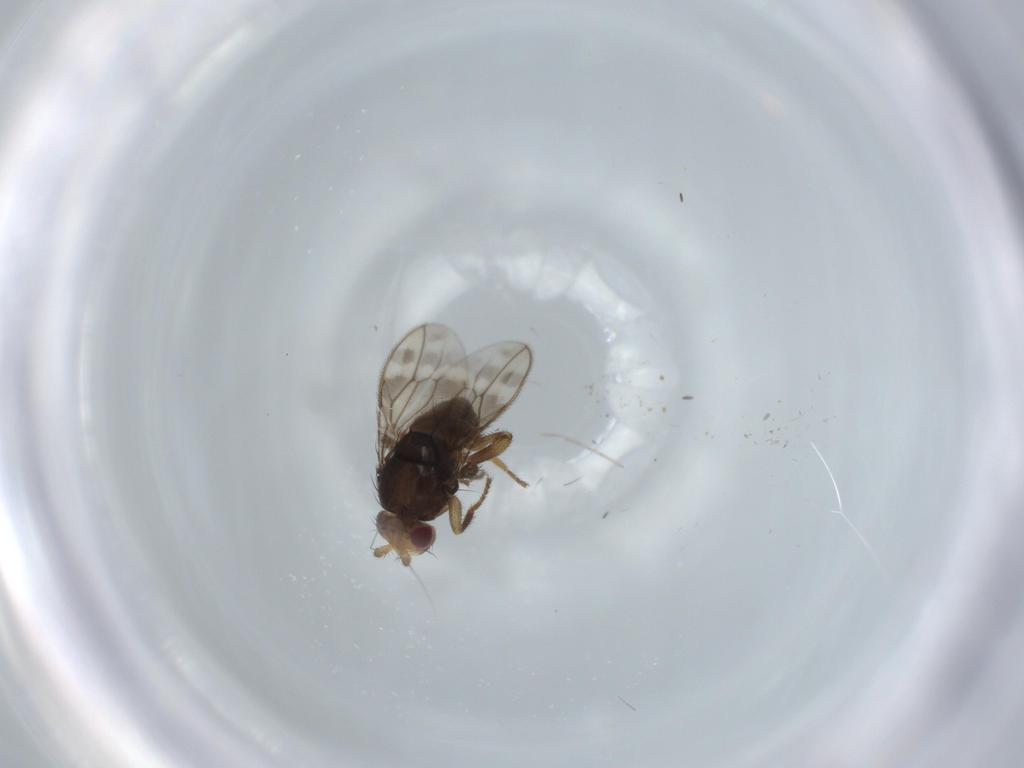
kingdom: Animalia
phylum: Arthropoda
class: Insecta
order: Diptera
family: Sphaeroceridae
